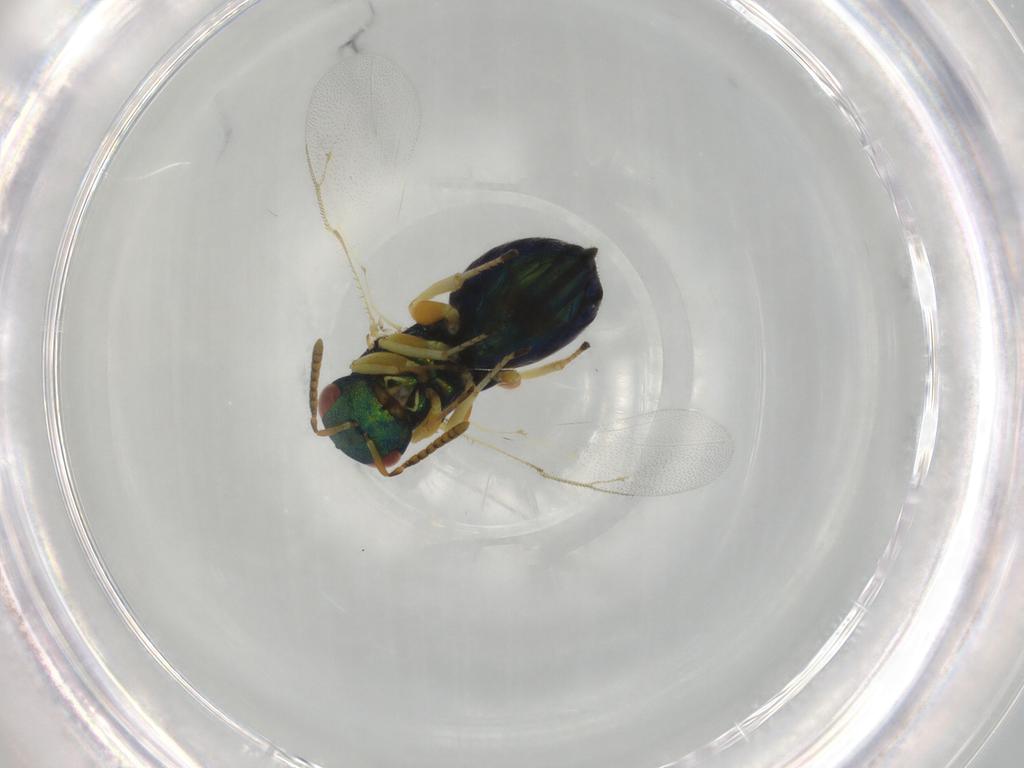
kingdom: Animalia
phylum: Arthropoda
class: Insecta
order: Hymenoptera
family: Pteromalidae
